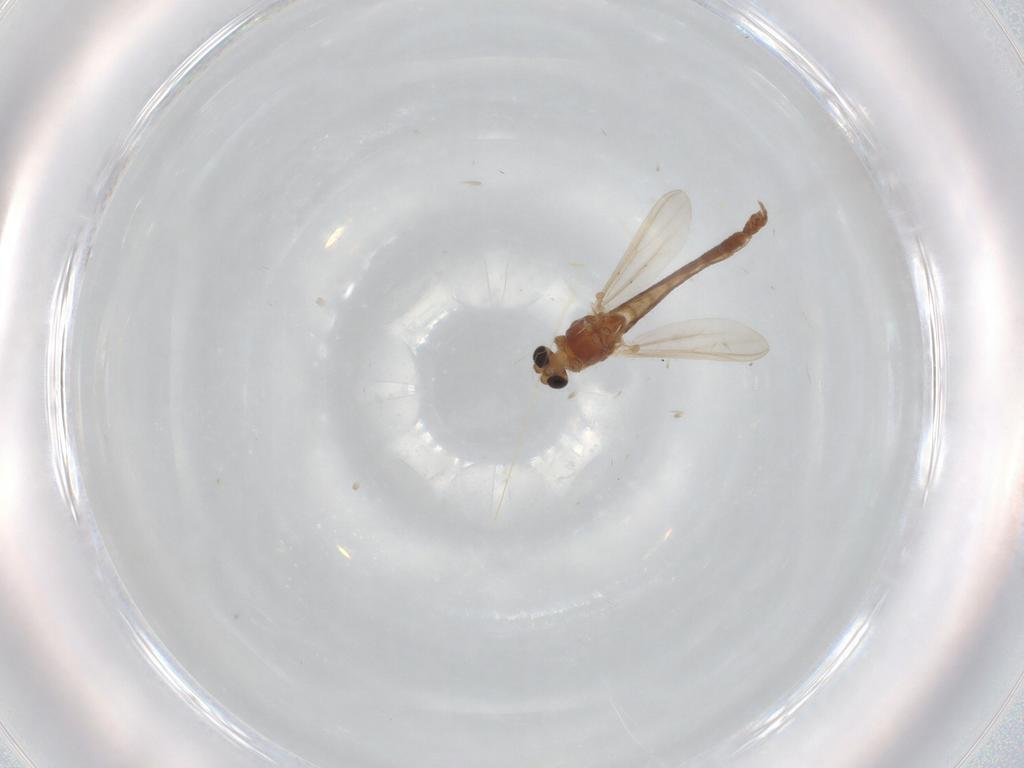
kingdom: Animalia
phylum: Arthropoda
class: Insecta
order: Diptera
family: Chironomidae
